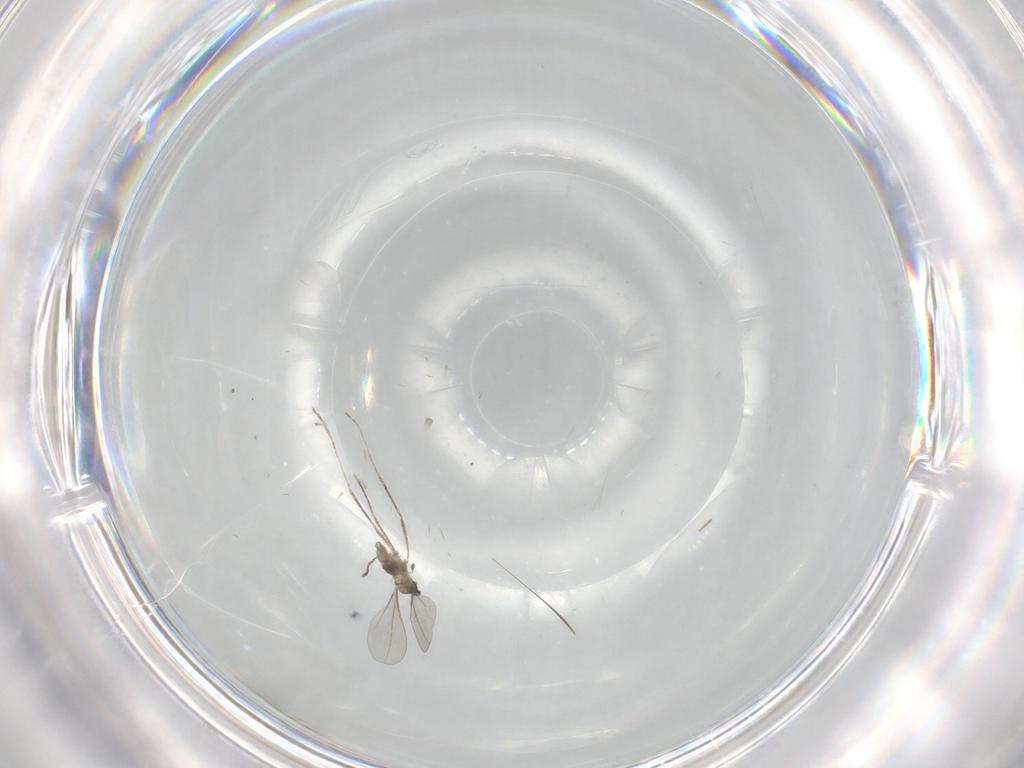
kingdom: Animalia
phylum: Arthropoda
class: Insecta
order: Diptera
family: Cecidomyiidae
